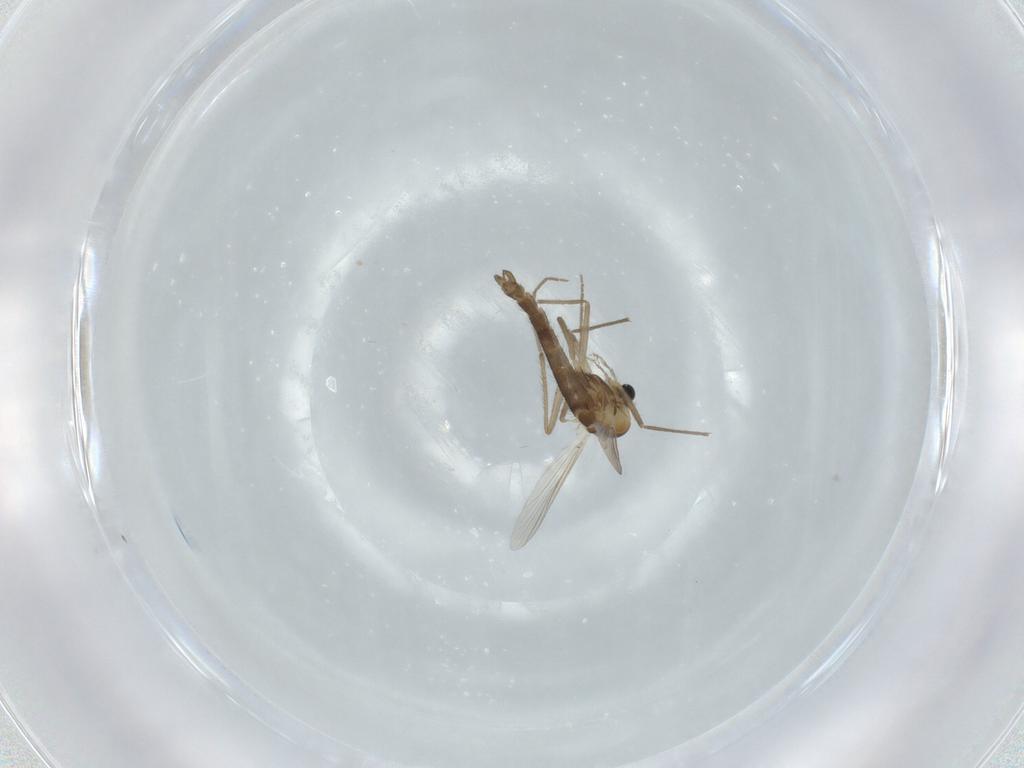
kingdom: Animalia
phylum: Arthropoda
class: Insecta
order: Diptera
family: Chironomidae
